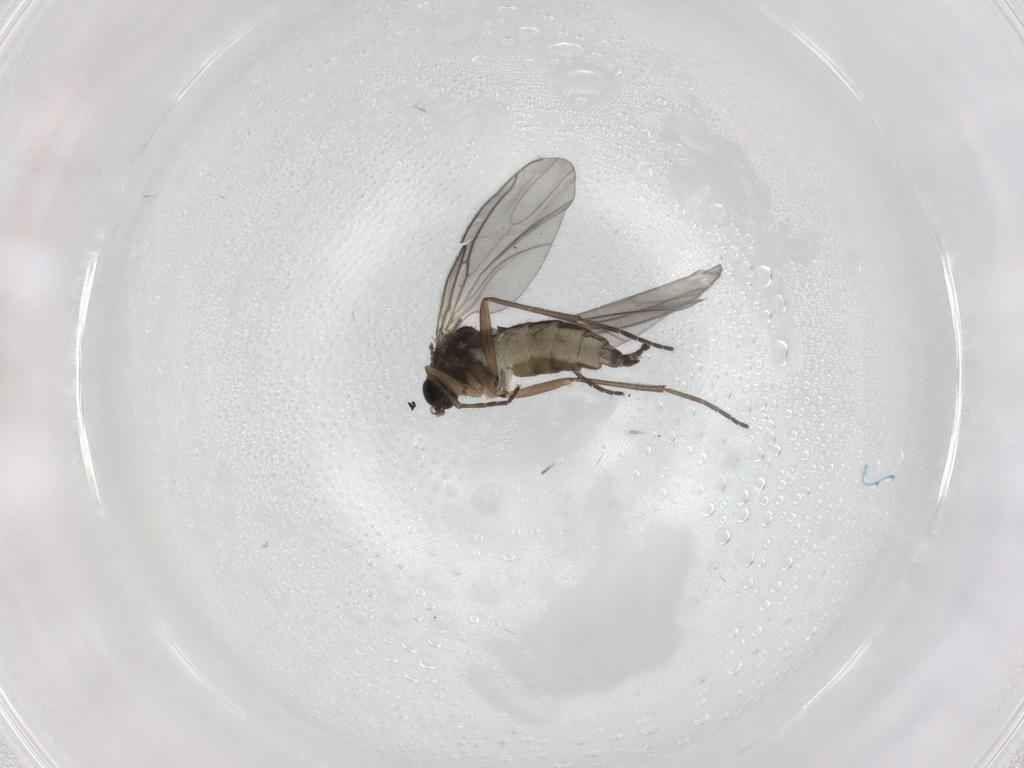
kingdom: Animalia
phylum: Arthropoda
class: Insecta
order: Diptera
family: Sciaridae
